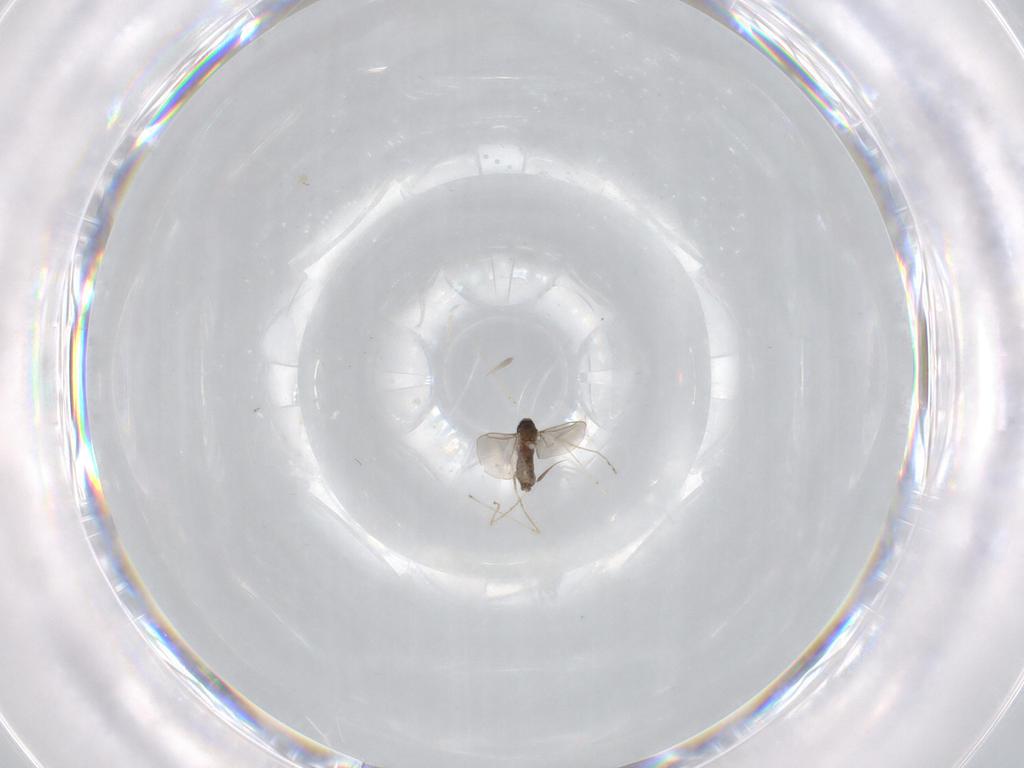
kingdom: Animalia
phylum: Arthropoda
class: Insecta
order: Diptera
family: Cecidomyiidae
